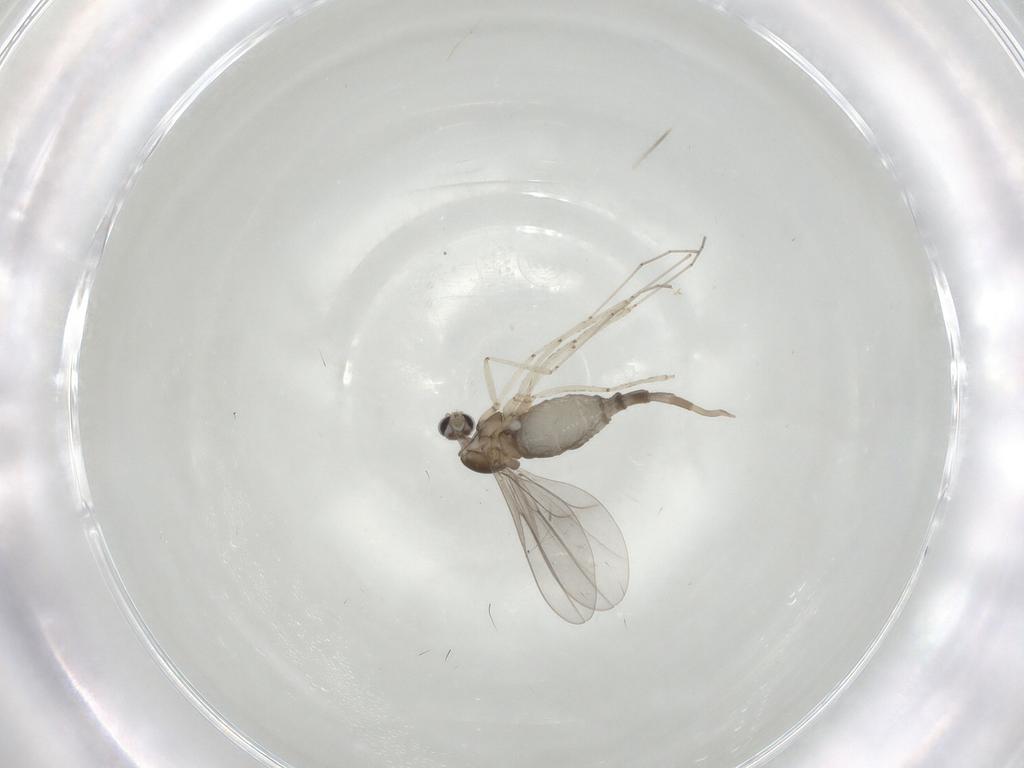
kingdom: Animalia
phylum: Arthropoda
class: Insecta
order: Diptera
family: Cecidomyiidae
